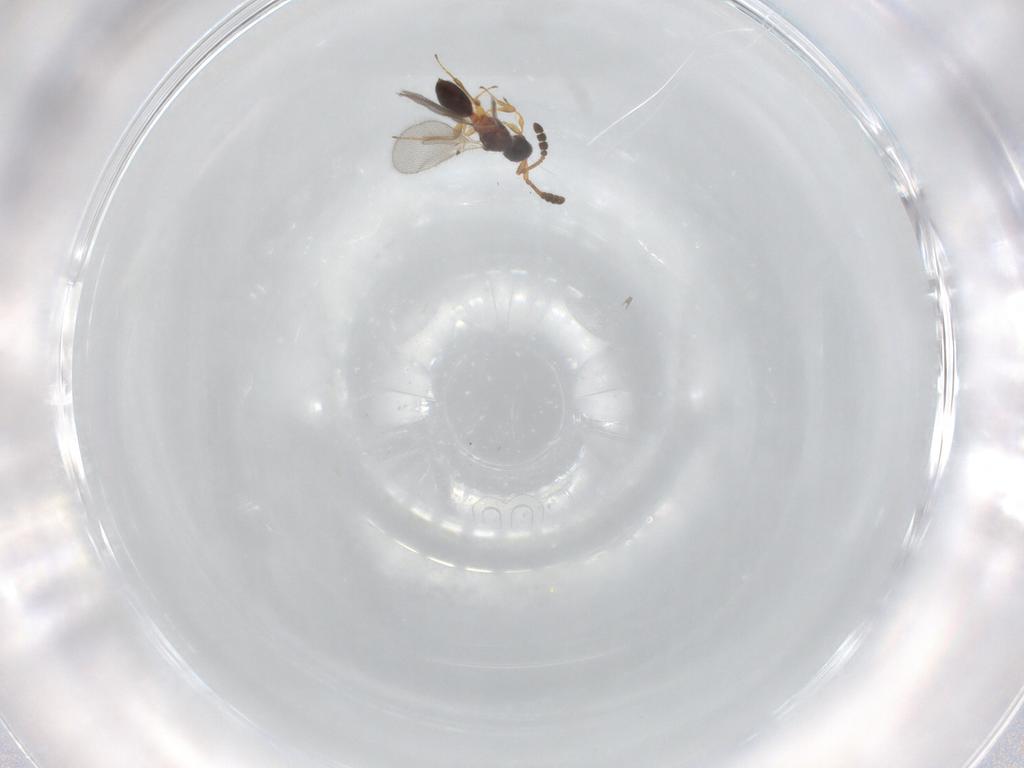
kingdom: Animalia
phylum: Arthropoda
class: Insecta
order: Hymenoptera
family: Diapriidae
